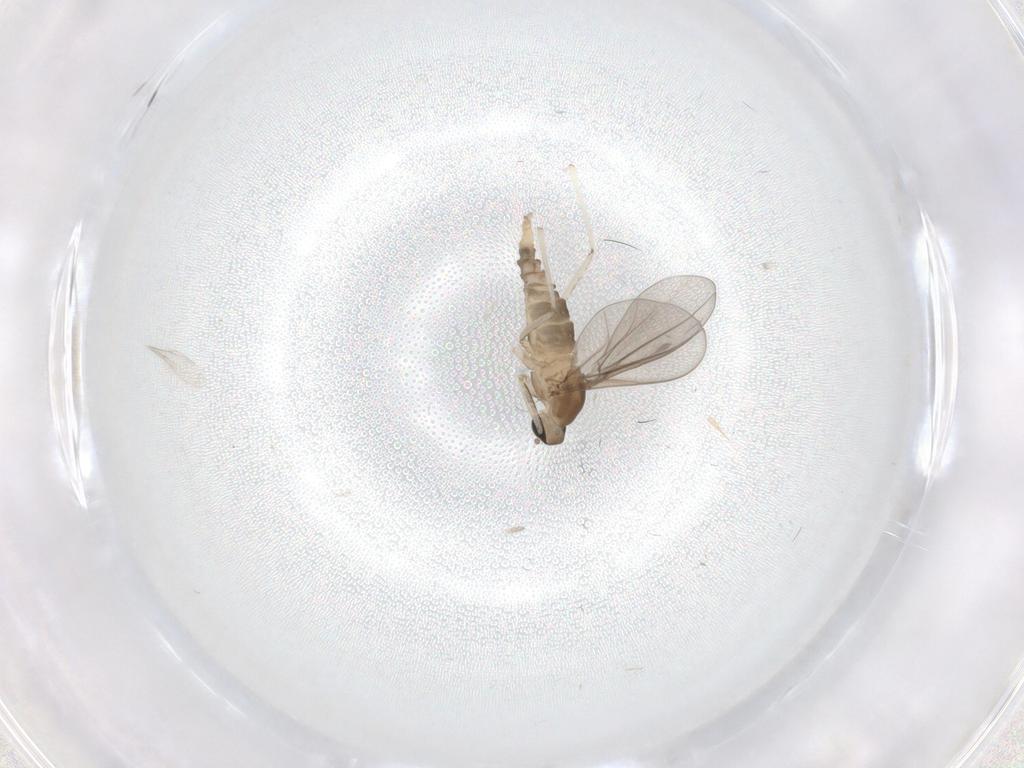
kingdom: Animalia
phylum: Arthropoda
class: Insecta
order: Diptera
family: Cecidomyiidae
